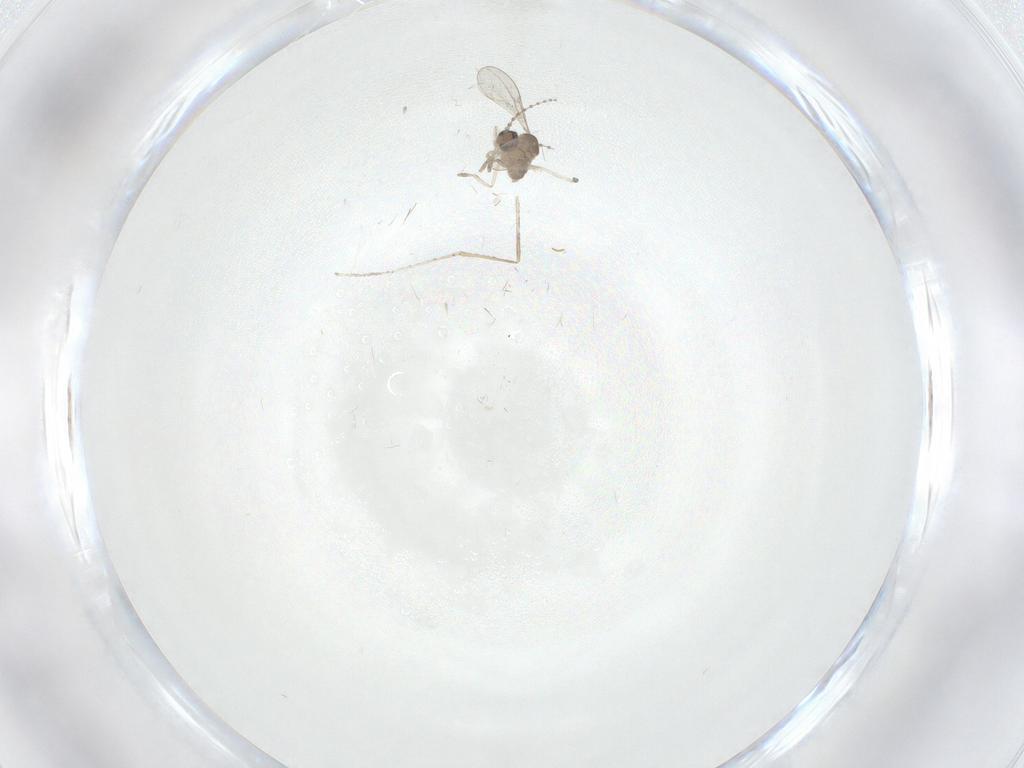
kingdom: Animalia
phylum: Arthropoda
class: Insecta
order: Diptera
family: Cecidomyiidae
